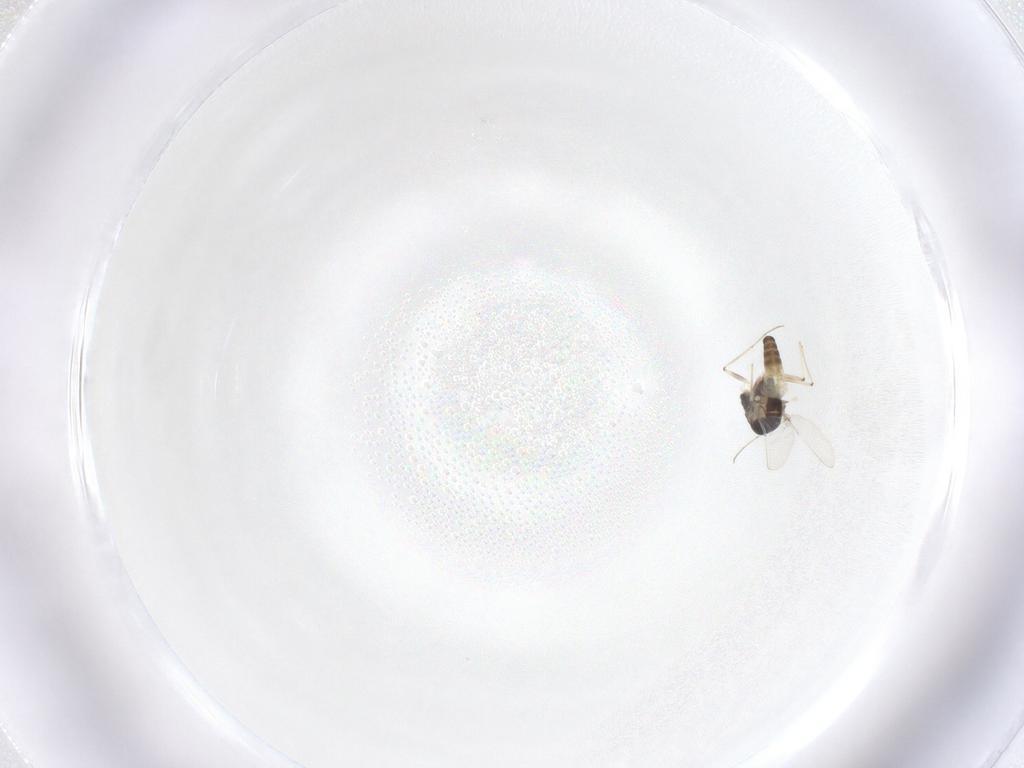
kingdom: Animalia
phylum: Arthropoda
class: Insecta
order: Diptera
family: Chironomidae
